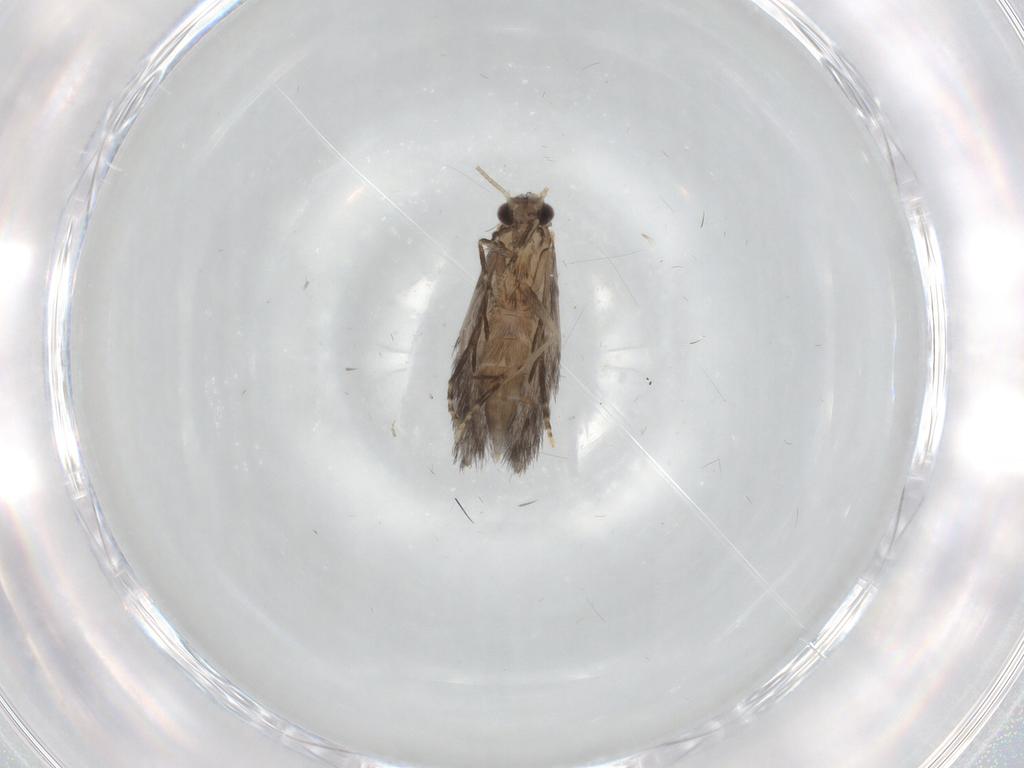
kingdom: Animalia
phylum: Arthropoda
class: Insecta
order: Trichoptera
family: Hydroptilidae
